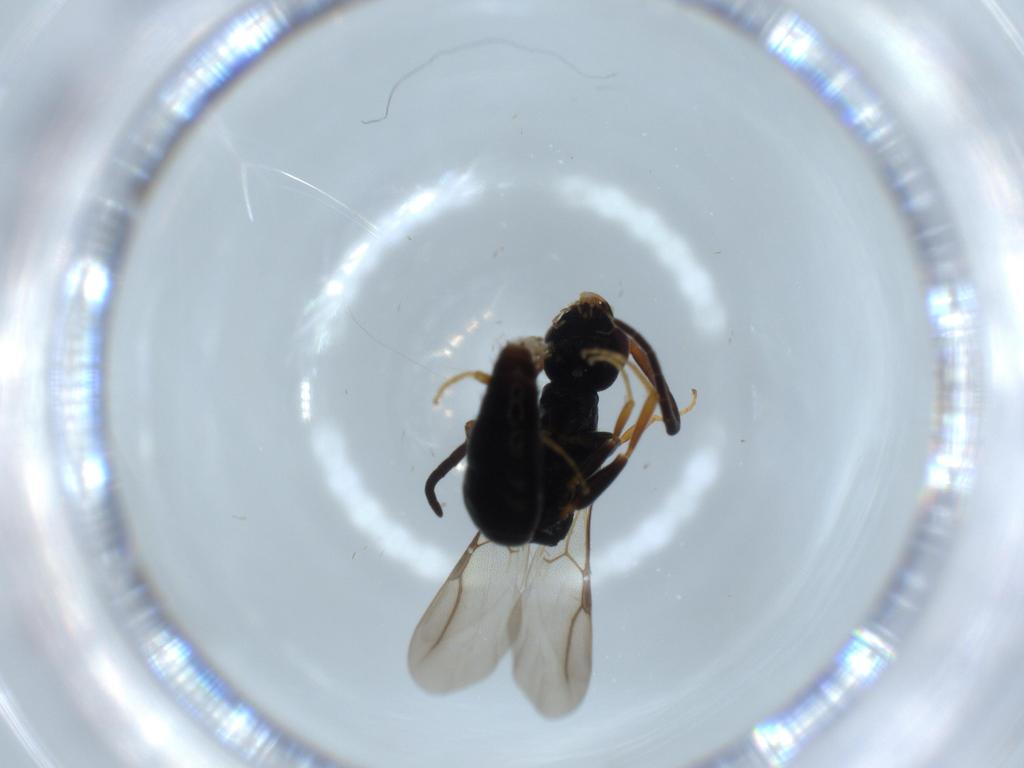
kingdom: Animalia
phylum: Arthropoda
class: Insecta
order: Hymenoptera
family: Bethylidae
